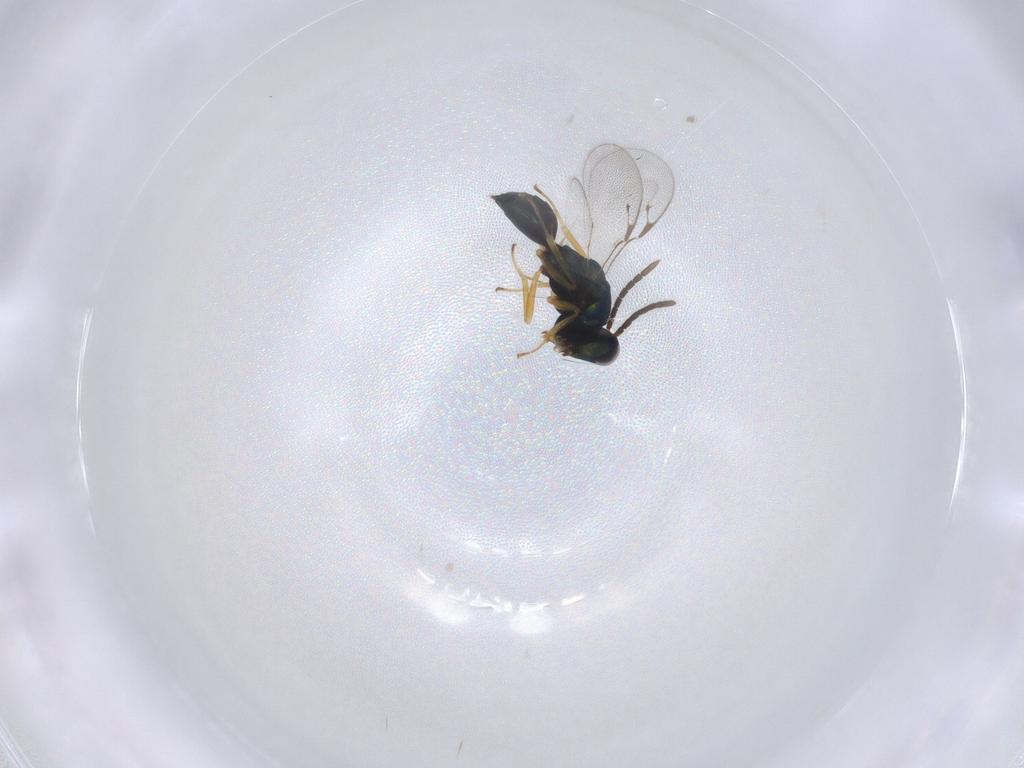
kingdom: Animalia
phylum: Arthropoda
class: Insecta
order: Hymenoptera
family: Pteromalidae
